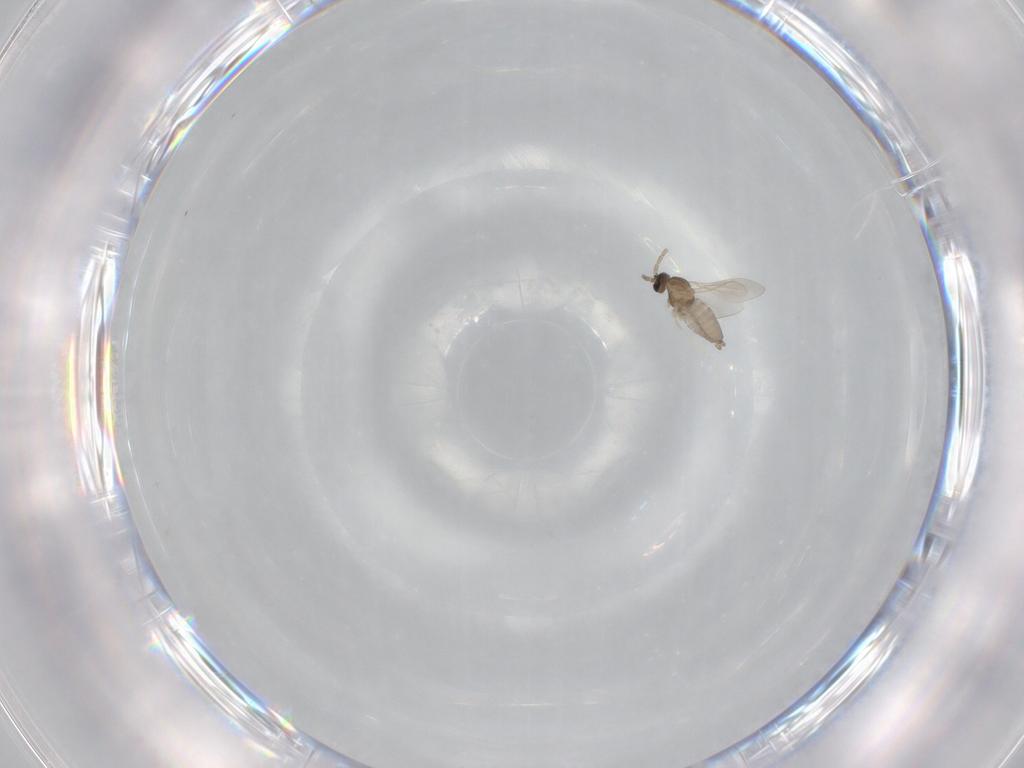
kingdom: Animalia
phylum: Arthropoda
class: Insecta
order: Diptera
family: Cecidomyiidae
